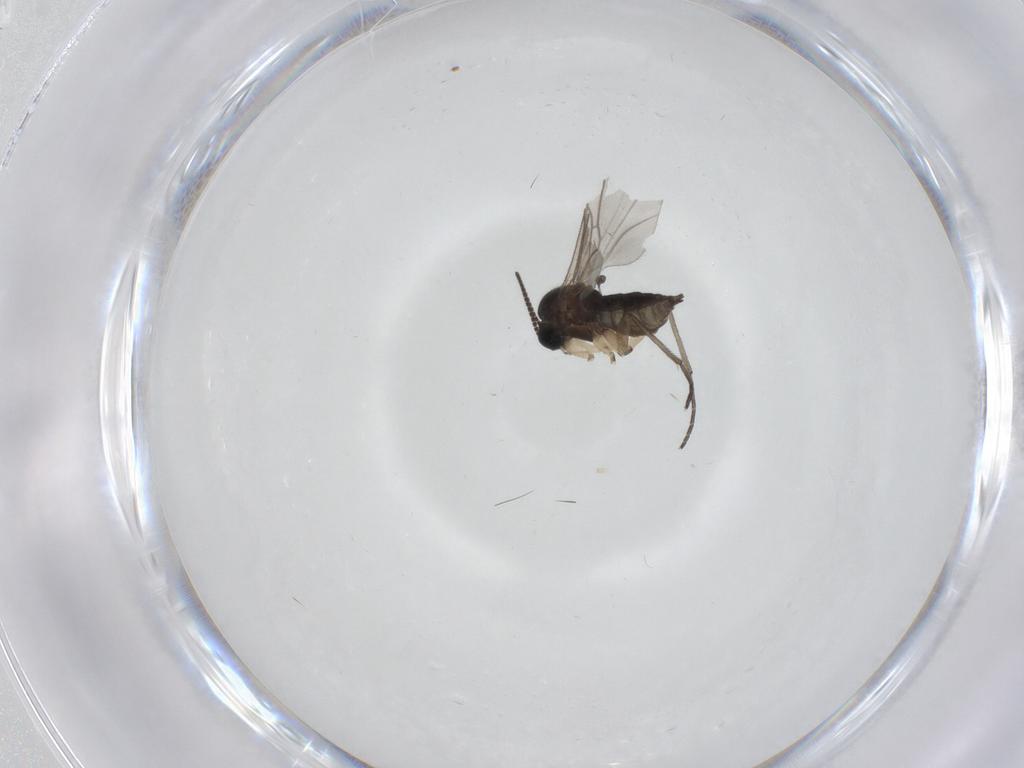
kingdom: Animalia
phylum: Arthropoda
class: Insecta
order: Diptera
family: Sciaridae
